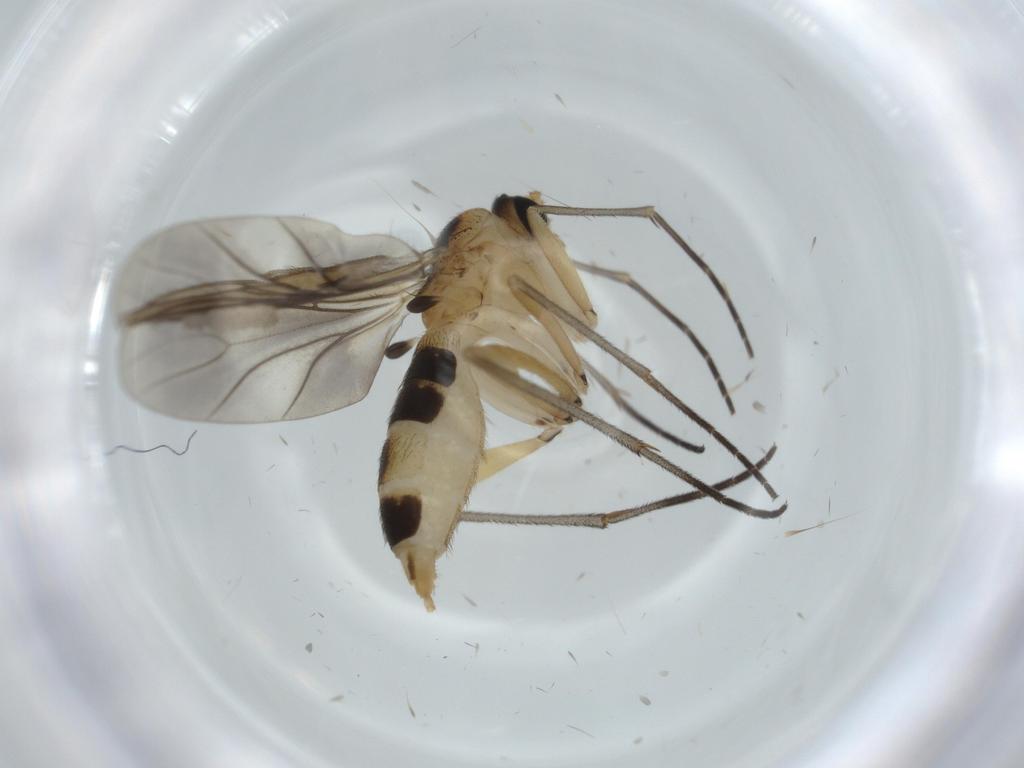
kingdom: Animalia
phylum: Arthropoda
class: Insecta
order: Diptera
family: Sciaridae
